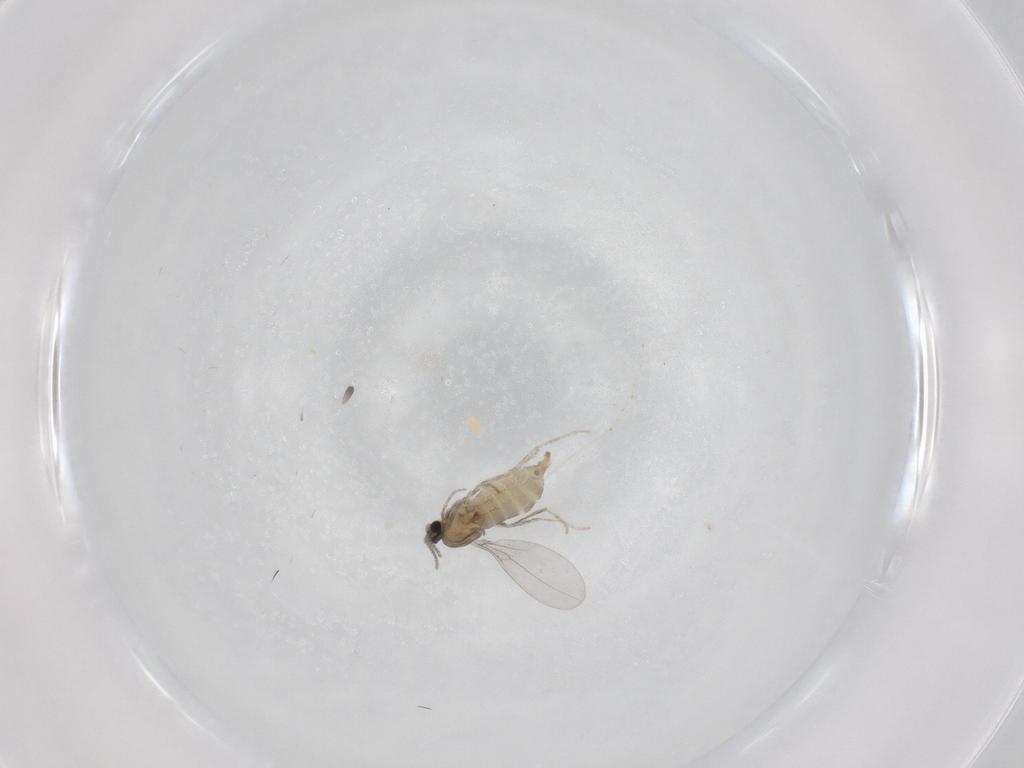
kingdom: Animalia
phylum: Arthropoda
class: Insecta
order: Diptera
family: Cecidomyiidae
